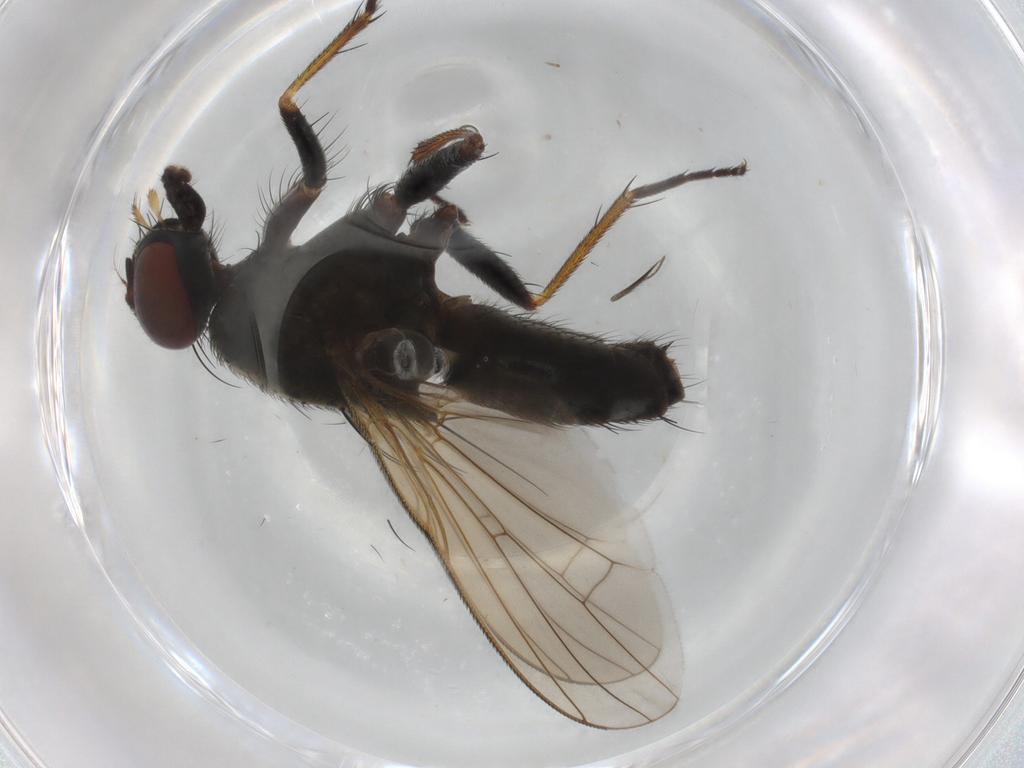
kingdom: Animalia
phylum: Arthropoda
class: Insecta
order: Diptera
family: Muscidae
